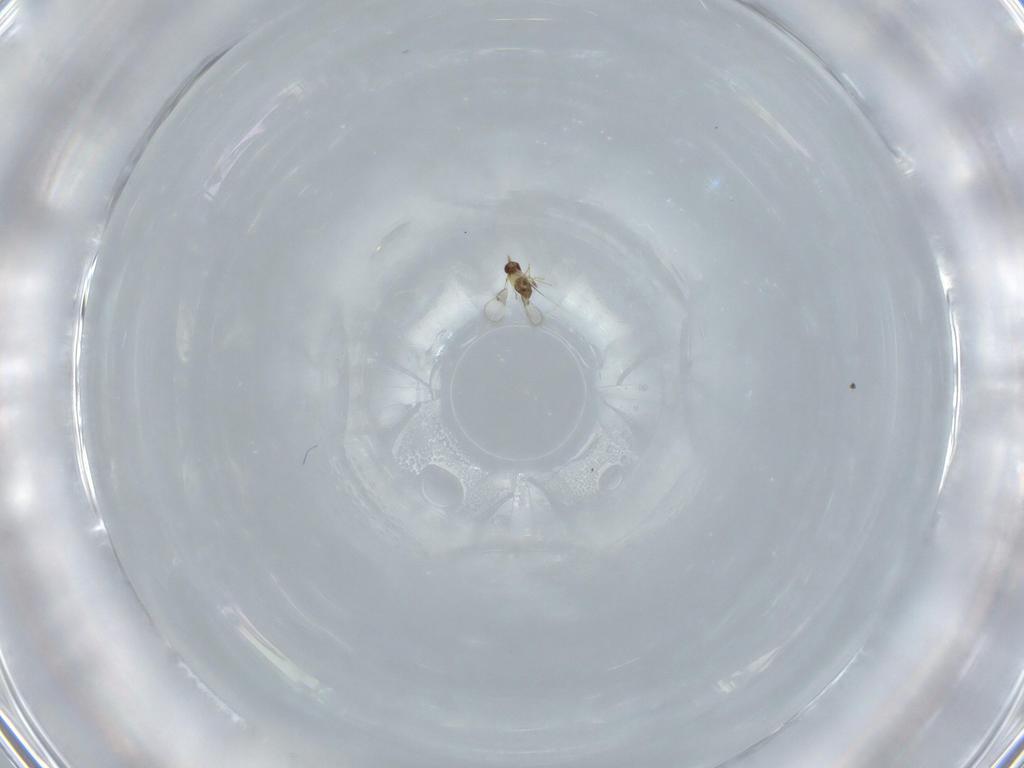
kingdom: Animalia
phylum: Arthropoda
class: Insecta
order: Hymenoptera
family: Trichogrammatidae
